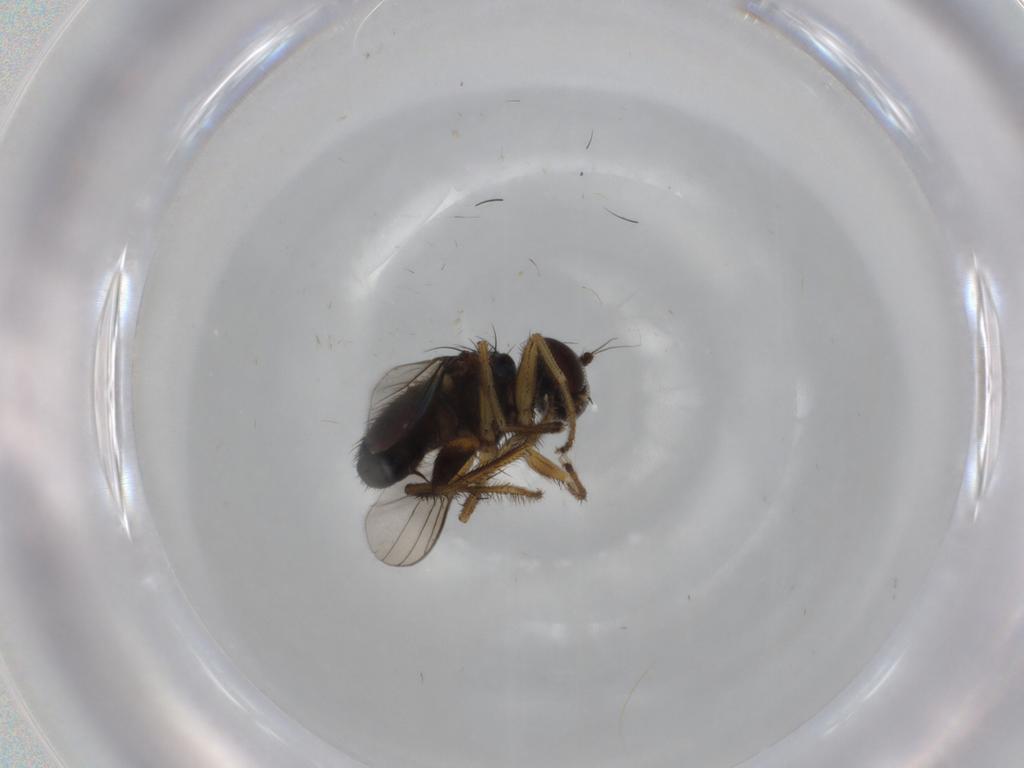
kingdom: Animalia
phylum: Arthropoda
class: Insecta
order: Diptera
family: Dolichopodidae
